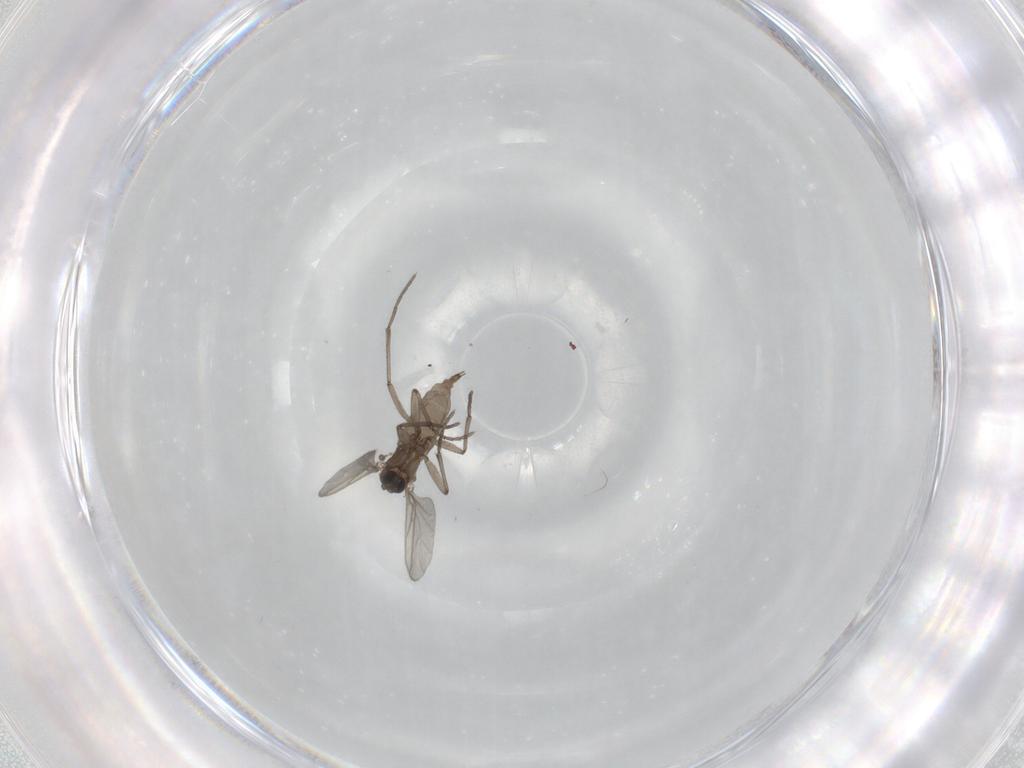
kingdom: Animalia
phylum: Arthropoda
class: Insecta
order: Diptera
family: Sciaridae
